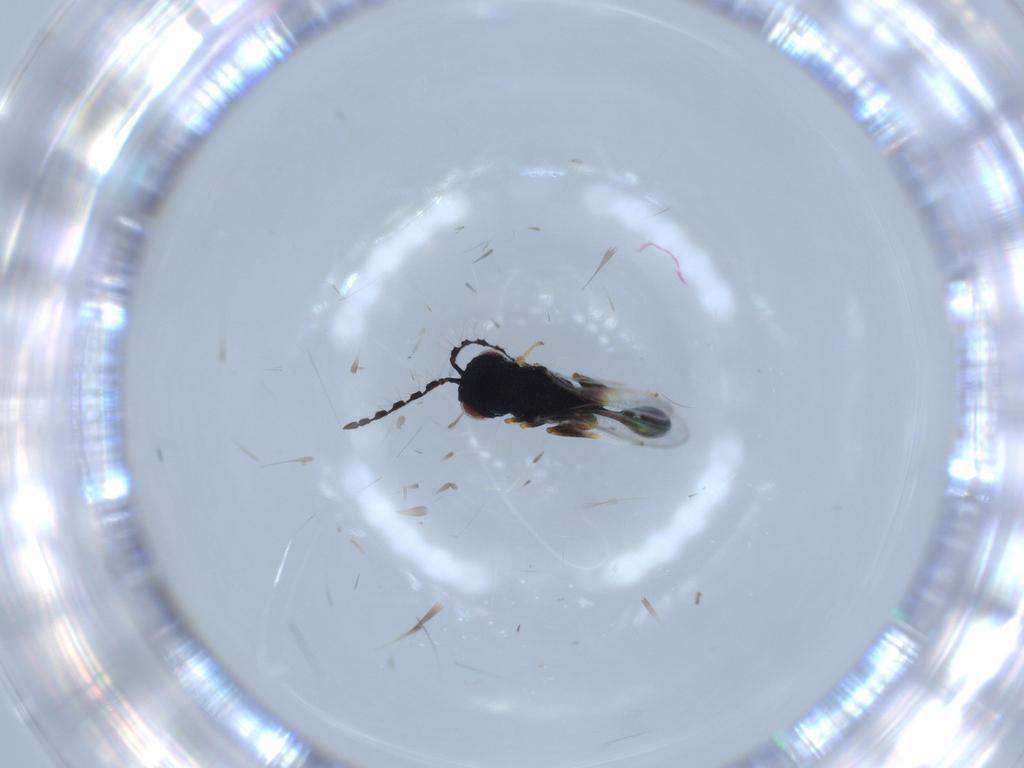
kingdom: Animalia
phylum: Arthropoda
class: Insecta
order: Hymenoptera
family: Eurytomidae
